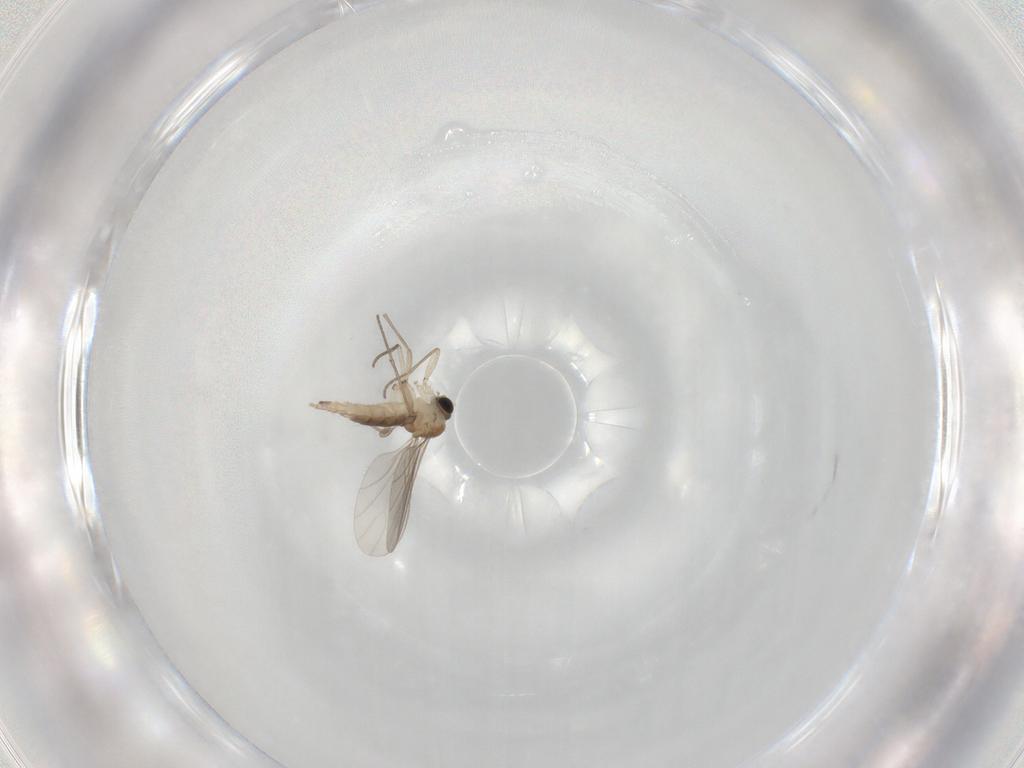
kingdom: Animalia
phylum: Arthropoda
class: Insecta
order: Diptera
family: Sciaridae
